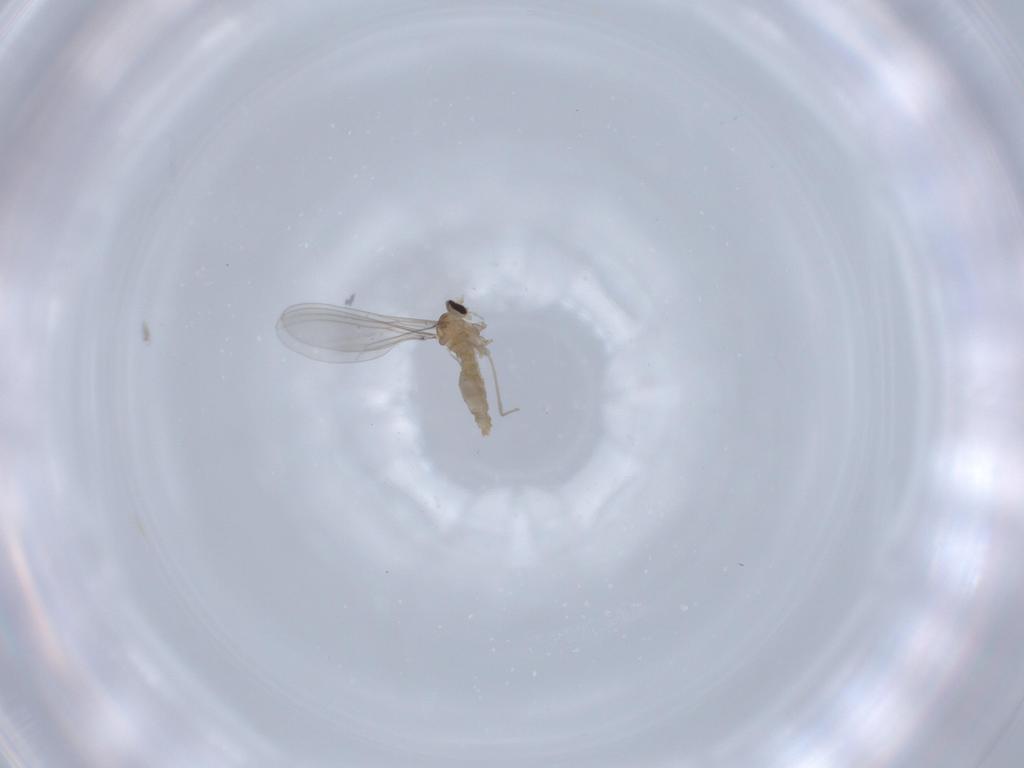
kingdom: Animalia
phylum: Arthropoda
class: Insecta
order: Diptera
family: Cecidomyiidae
